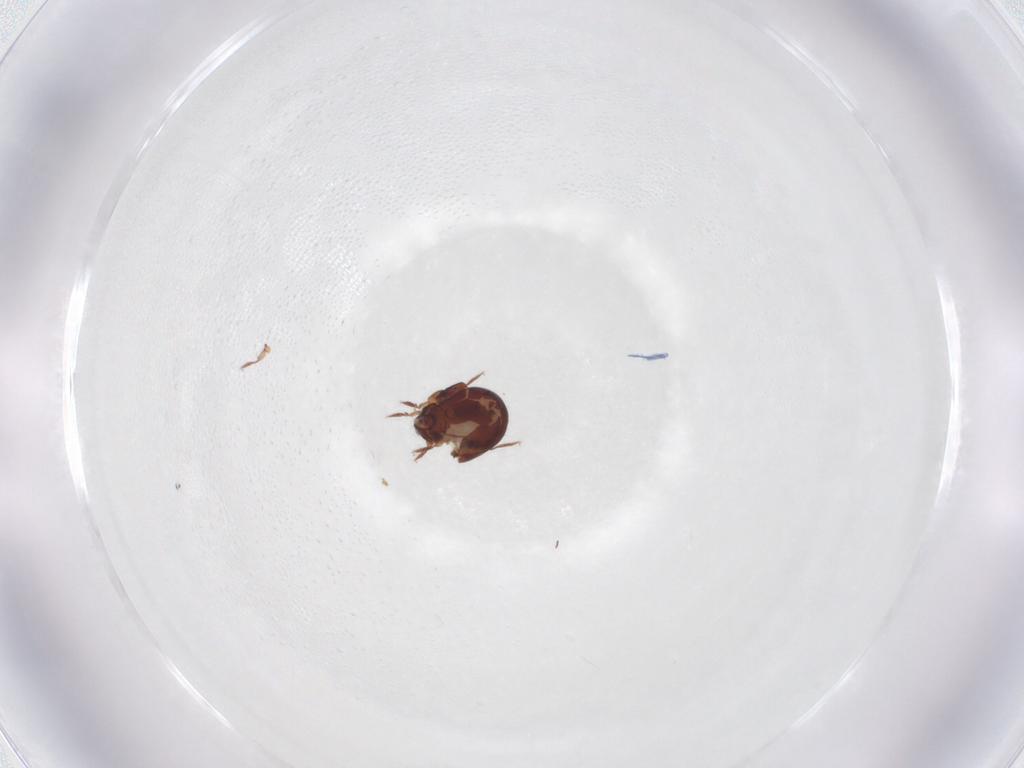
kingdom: Animalia
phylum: Arthropoda
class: Arachnida
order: Sarcoptiformes
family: Humerobatidae
